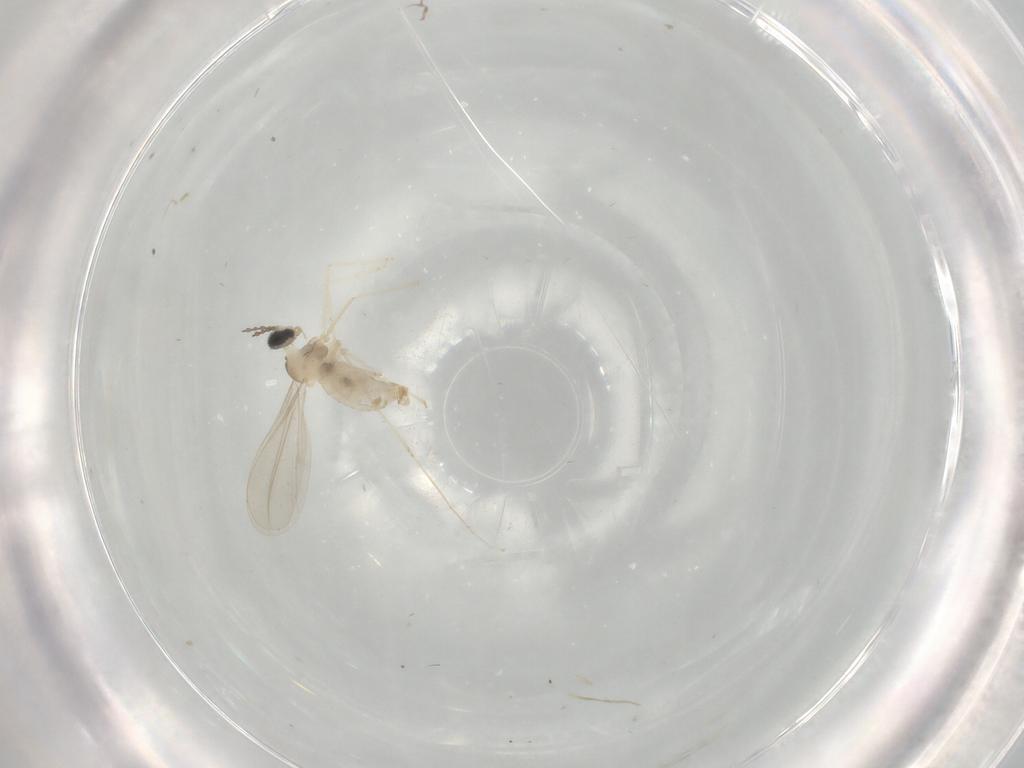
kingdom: Animalia
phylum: Arthropoda
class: Insecta
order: Diptera
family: Phoridae
